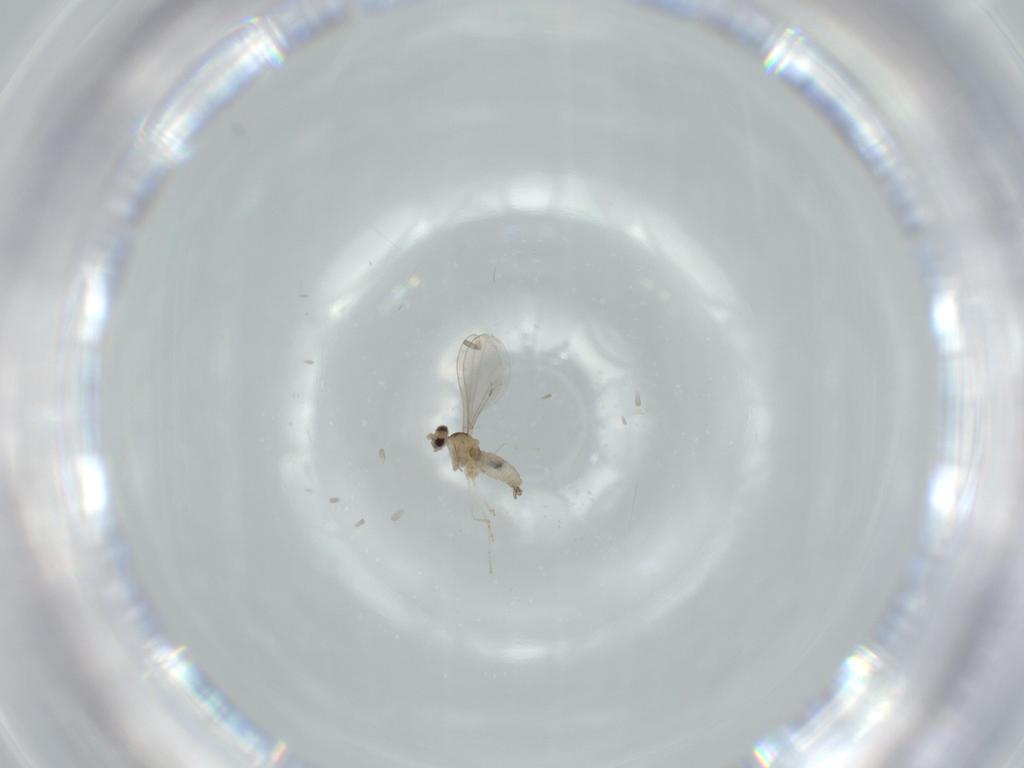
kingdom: Animalia
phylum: Arthropoda
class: Insecta
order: Diptera
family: Cecidomyiidae
